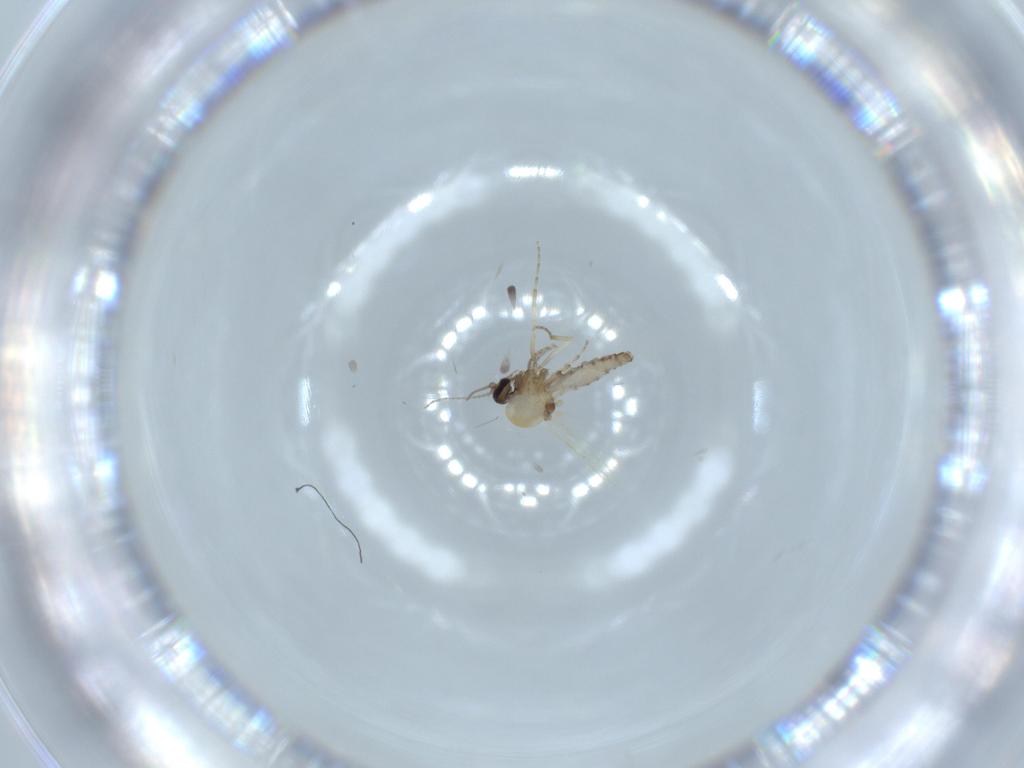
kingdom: Animalia
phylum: Arthropoda
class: Insecta
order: Diptera
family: Ceratopogonidae
